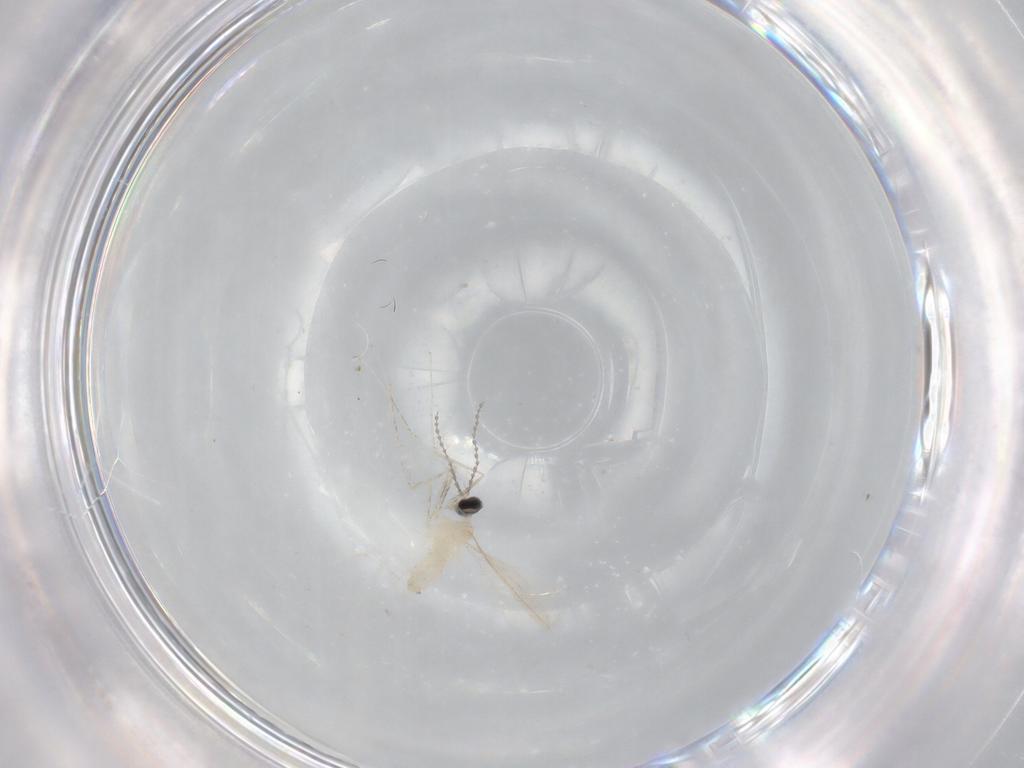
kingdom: Animalia
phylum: Arthropoda
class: Insecta
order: Diptera
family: Cecidomyiidae
